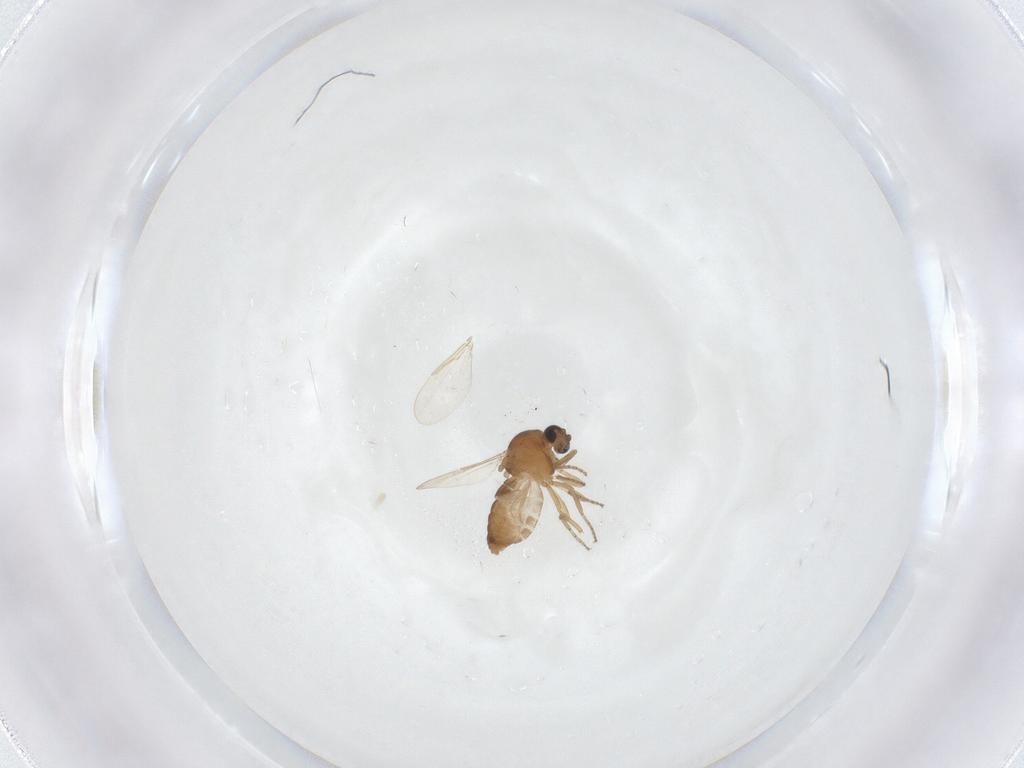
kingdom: Animalia
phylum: Arthropoda
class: Insecta
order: Diptera
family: Ceratopogonidae
